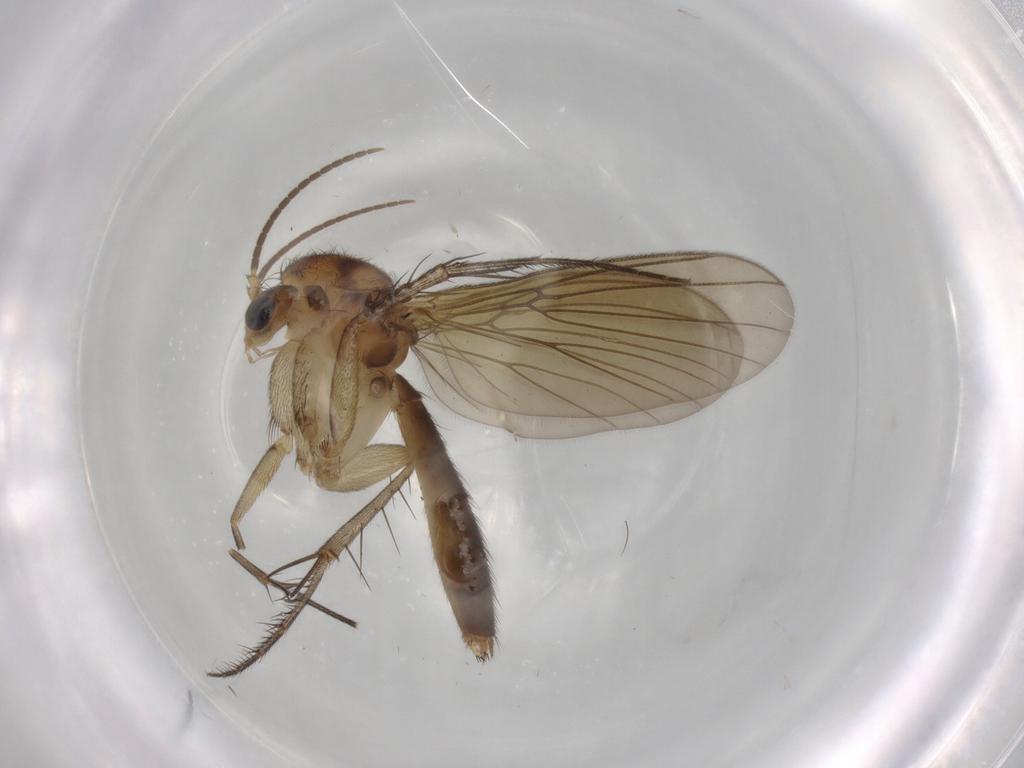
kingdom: Animalia
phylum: Arthropoda
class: Insecta
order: Diptera
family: Mycetophilidae
